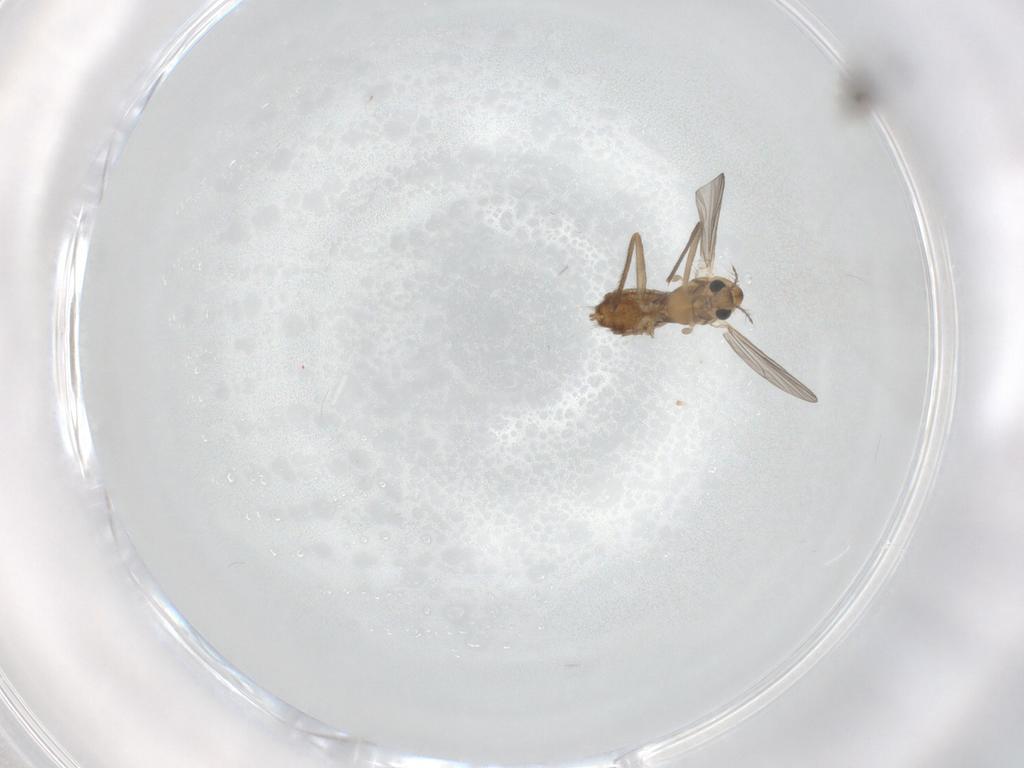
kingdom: Animalia
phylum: Arthropoda
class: Insecta
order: Diptera
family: Chironomidae
